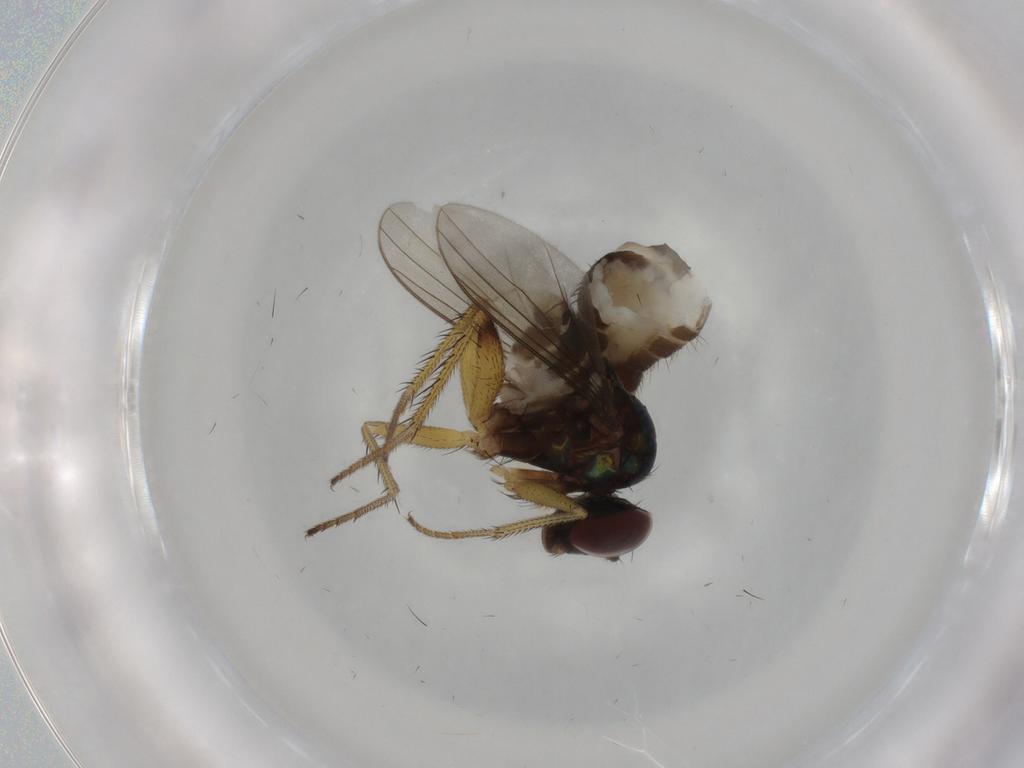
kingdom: Animalia
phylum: Arthropoda
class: Insecta
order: Diptera
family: Dolichopodidae
